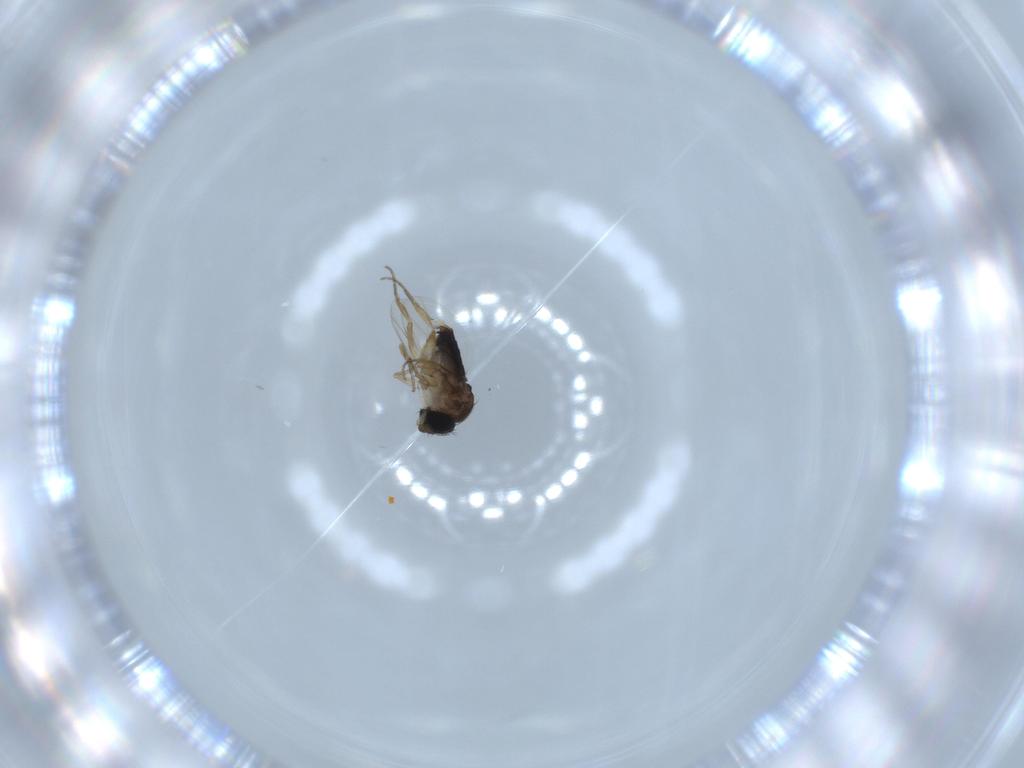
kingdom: Animalia
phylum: Arthropoda
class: Insecta
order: Diptera
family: Phoridae
